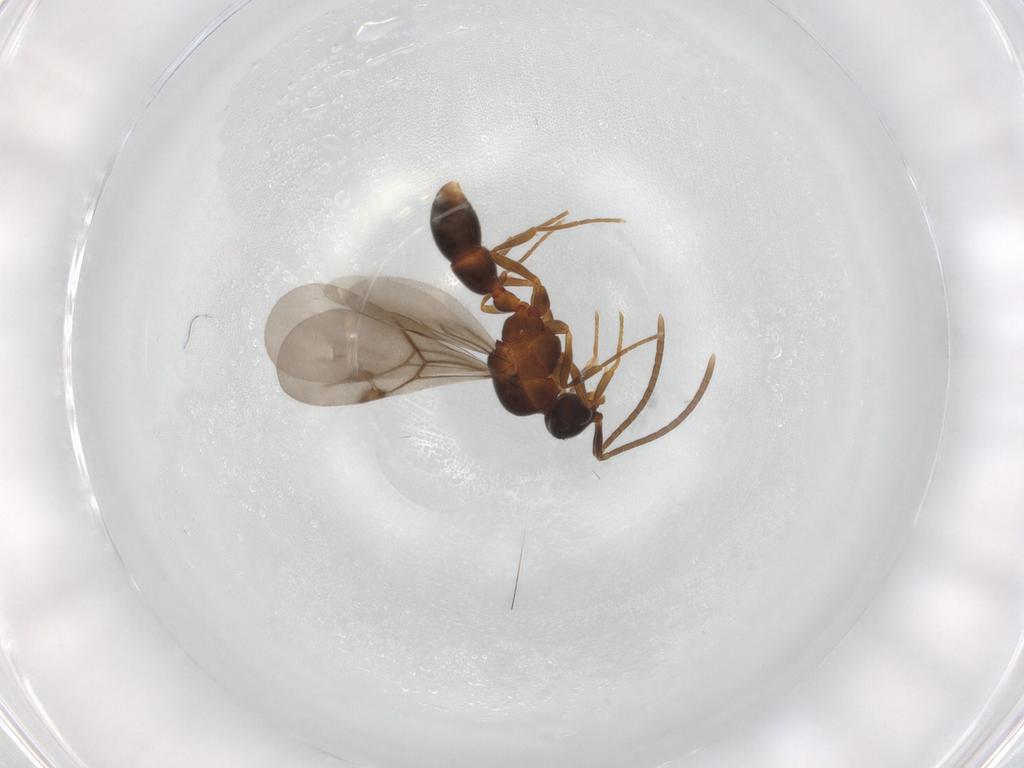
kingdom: Animalia
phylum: Arthropoda
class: Insecta
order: Hymenoptera
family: Formicidae
